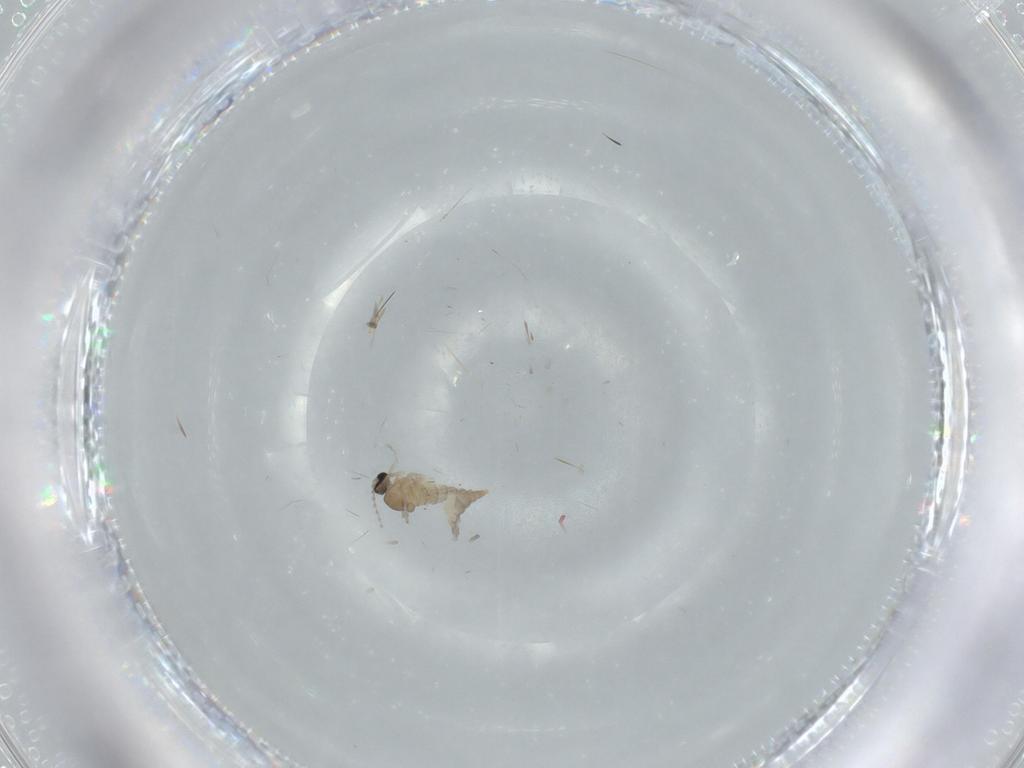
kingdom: Animalia
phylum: Arthropoda
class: Insecta
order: Diptera
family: Cecidomyiidae
